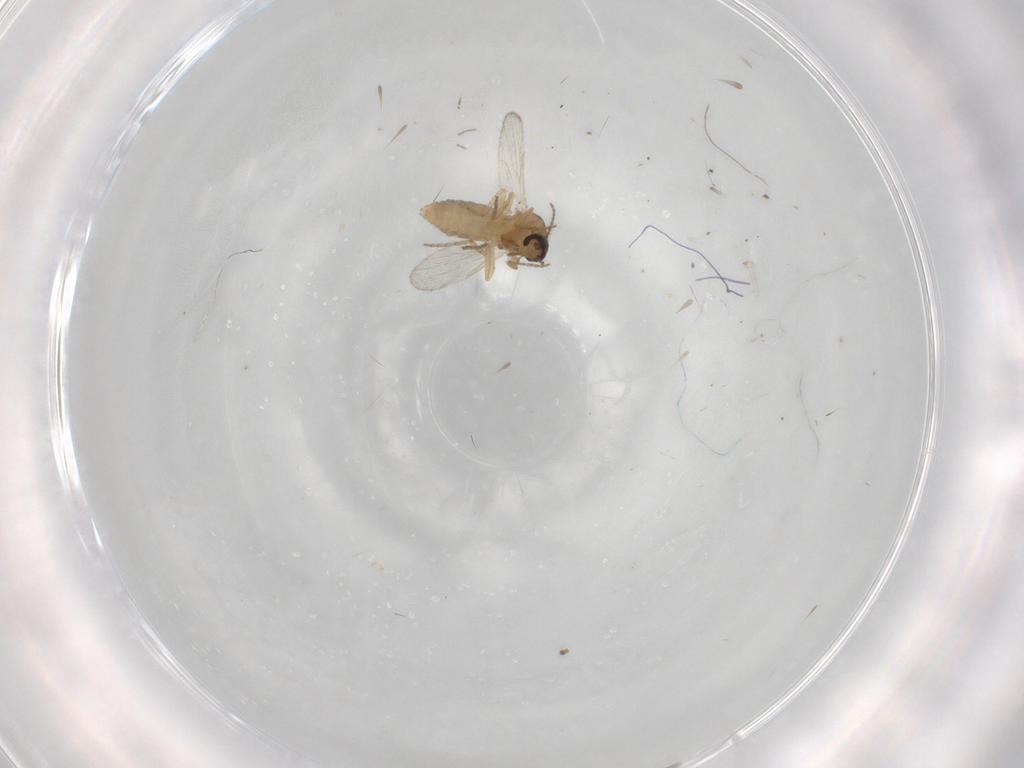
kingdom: Animalia
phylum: Arthropoda
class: Insecta
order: Diptera
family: Ceratopogonidae
